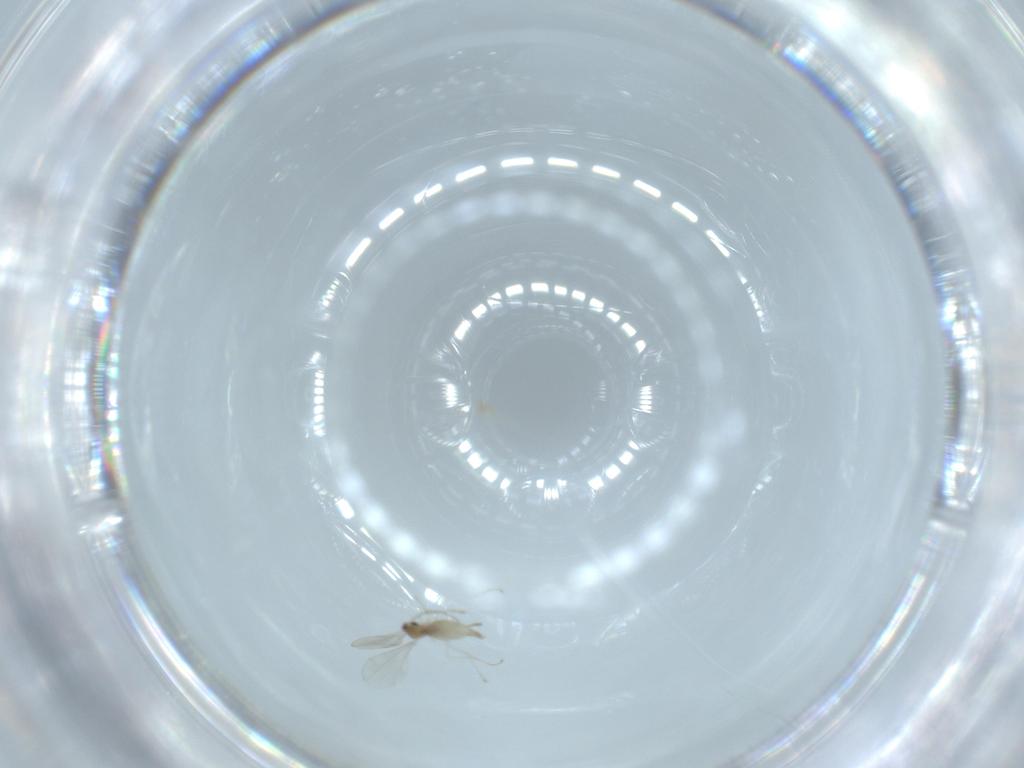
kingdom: Animalia
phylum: Arthropoda
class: Insecta
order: Diptera
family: Cecidomyiidae
